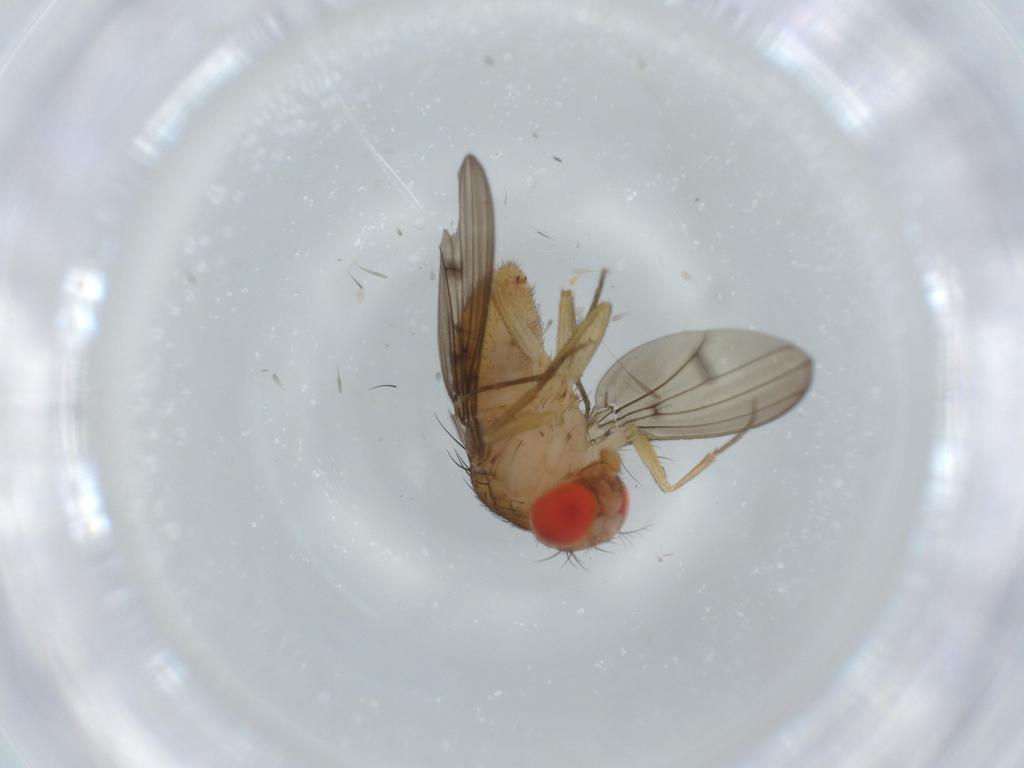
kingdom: Animalia
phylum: Arthropoda
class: Insecta
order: Diptera
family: Drosophilidae
